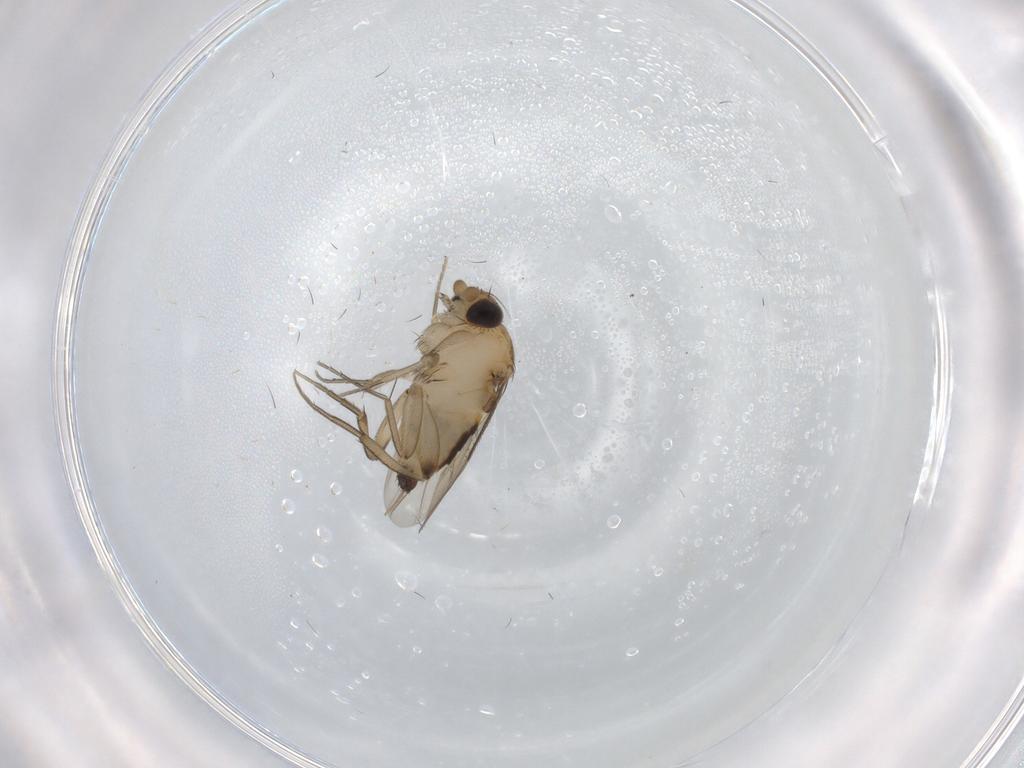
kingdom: Animalia
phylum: Arthropoda
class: Insecta
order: Diptera
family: Phoridae
